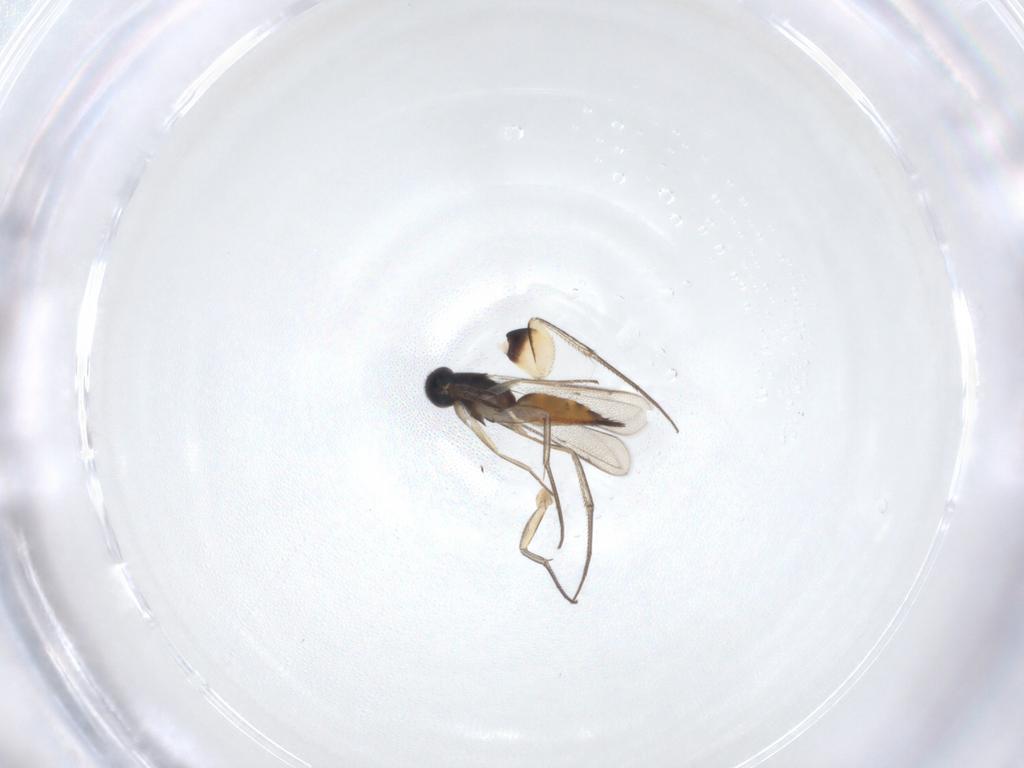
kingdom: Animalia
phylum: Arthropoda
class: Insecta
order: Hymenoptera
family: Eulophidae
